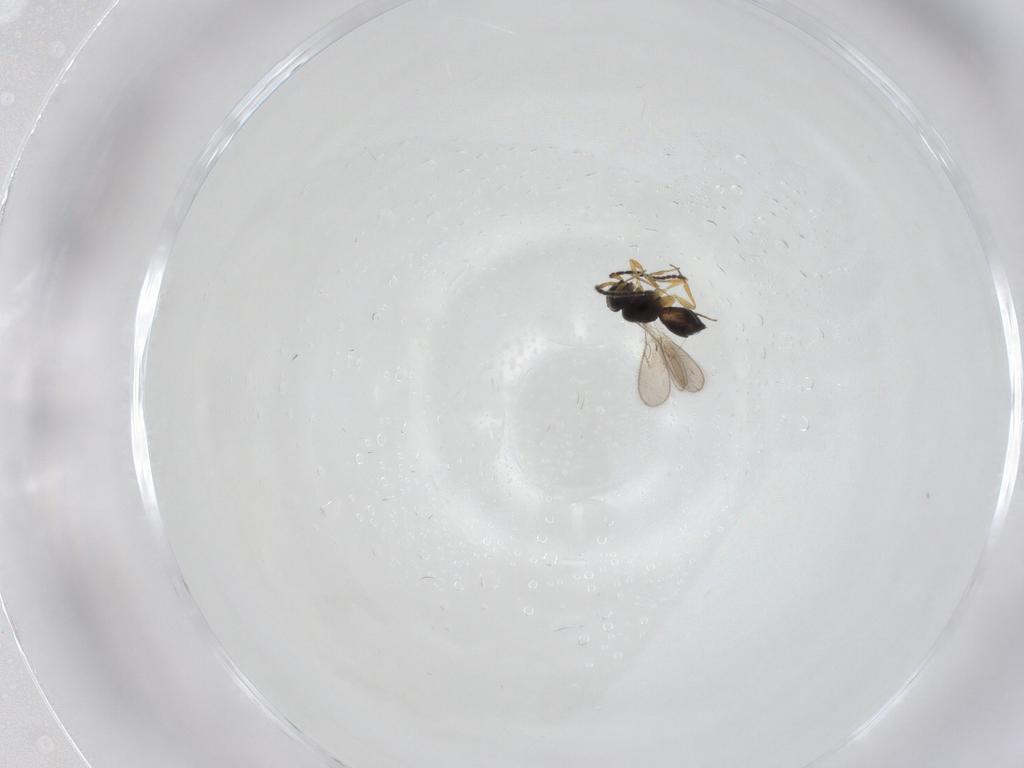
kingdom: Animalia
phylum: Arthropoda
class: Insecta
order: Hymenoptera
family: Scelionidae
